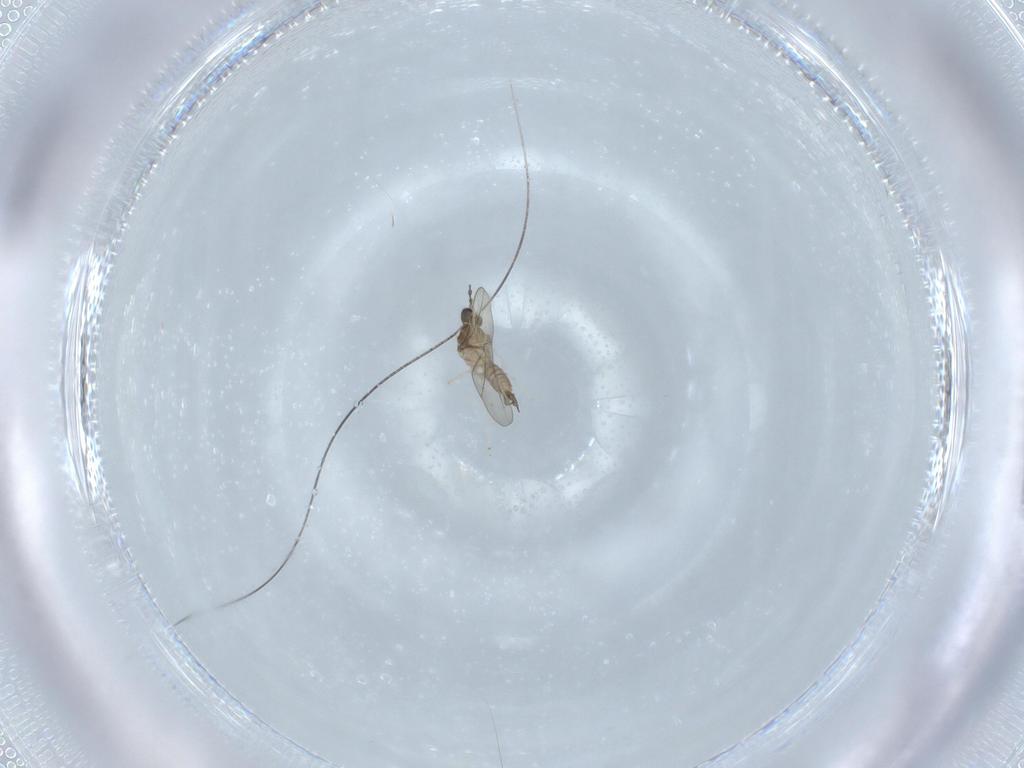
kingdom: Animalia
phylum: Arthropoda
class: Insecta
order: Diptera
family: Cecidomyiidae
